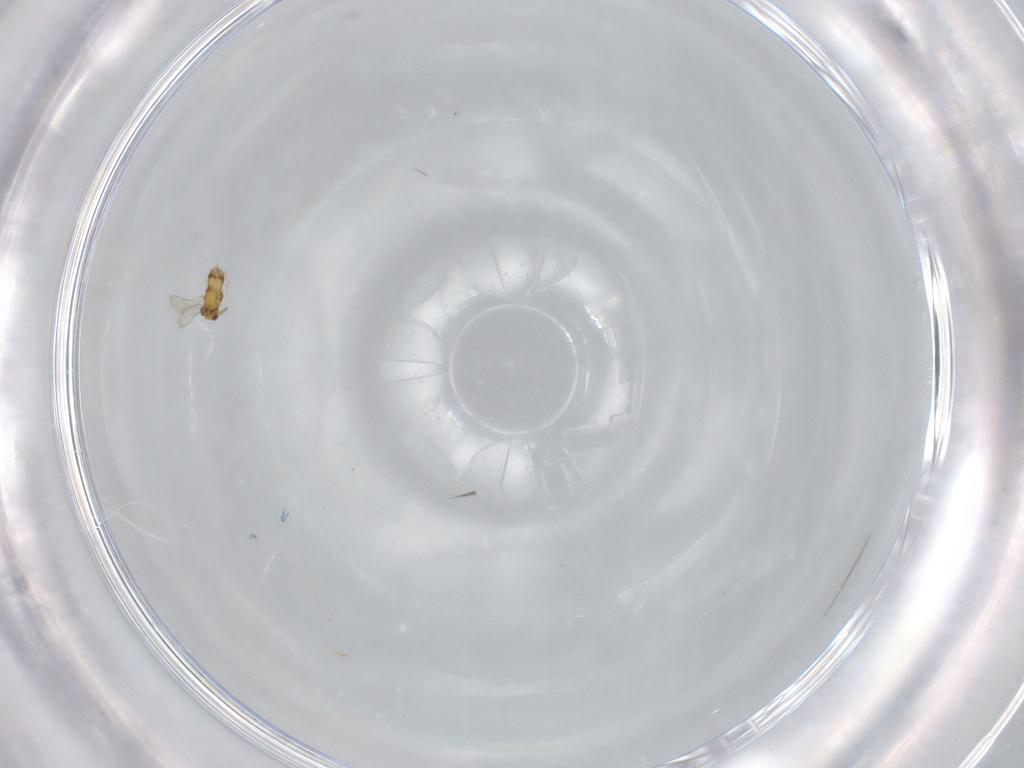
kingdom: Animalia
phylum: Arthropoda
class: Insecta
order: Hymenoptera
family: Aphelinidae
